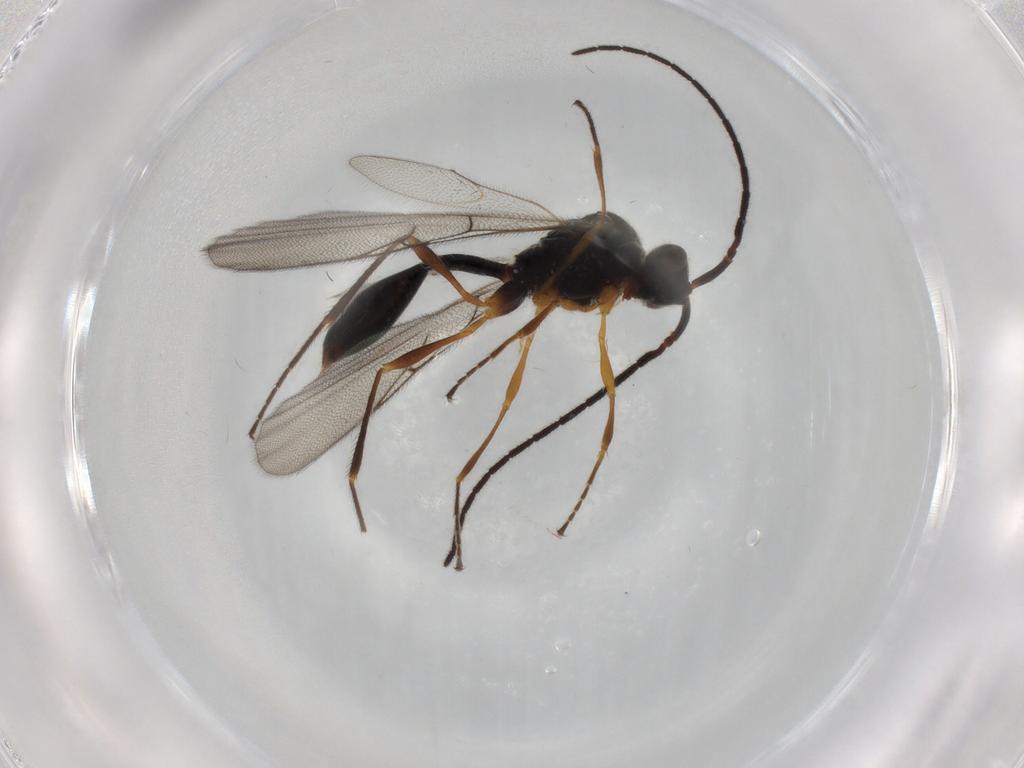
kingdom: Animalia
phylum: Arthropoda
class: Insecta
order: Hymenoptera
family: Diapriidae
